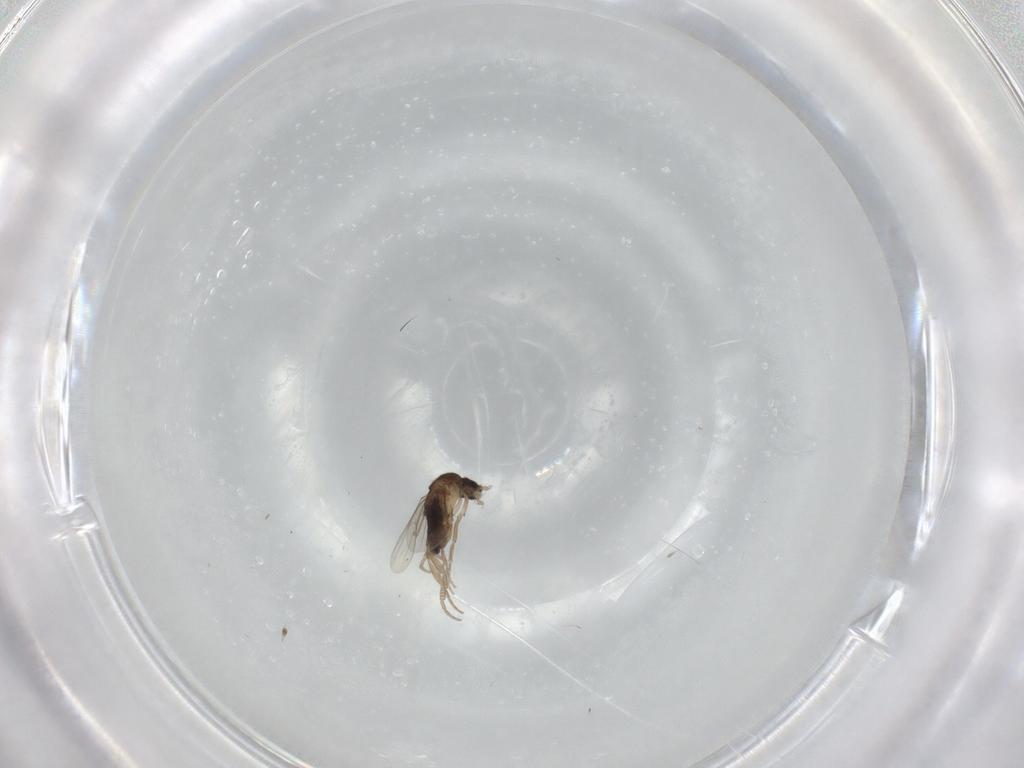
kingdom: Animalia
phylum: Arthropoda
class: Insecta
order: Diptera
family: Phoridae
